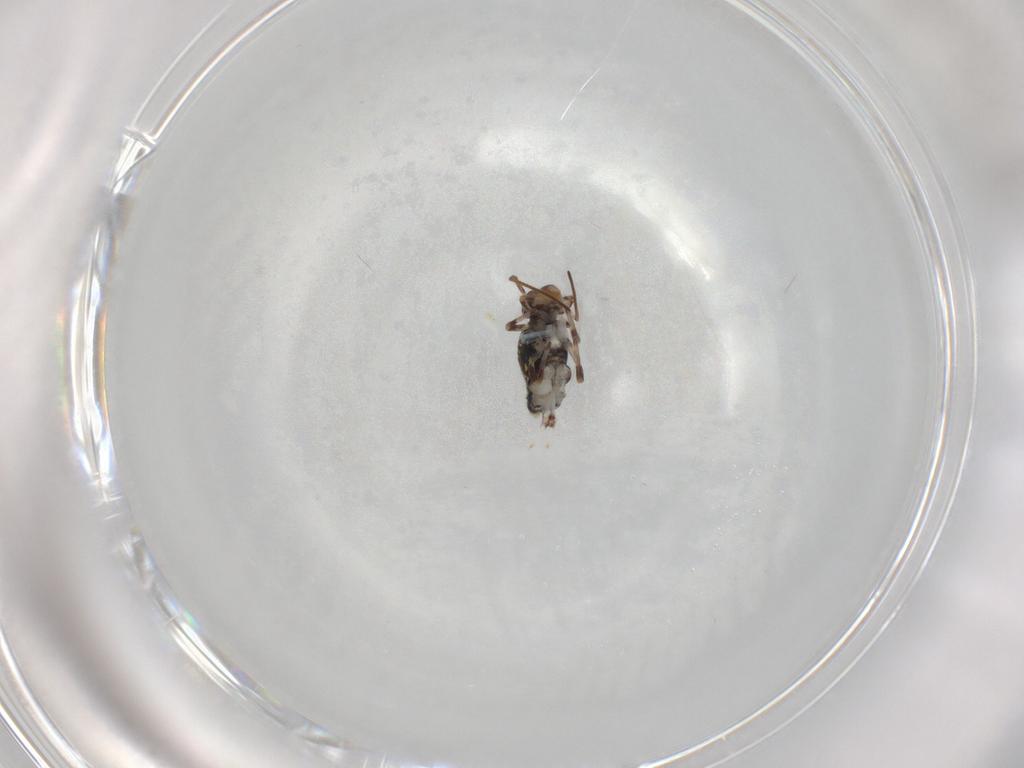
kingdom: Animalia
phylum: Arthropoda
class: Collembola
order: Symphypleona
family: Katiannidae
